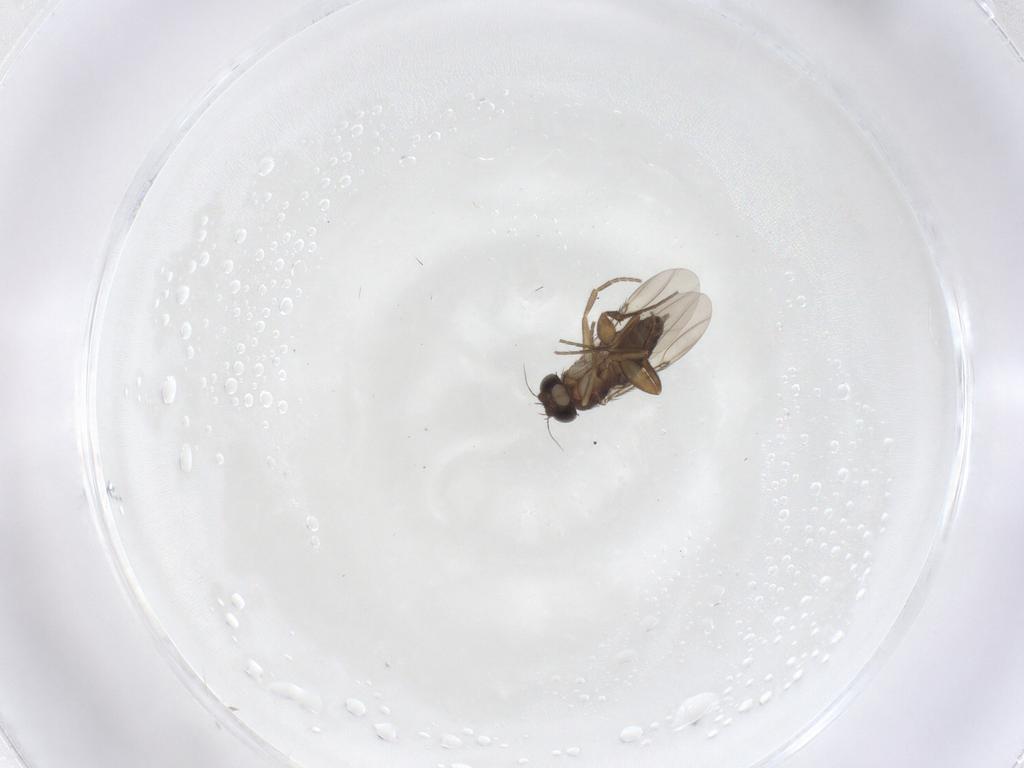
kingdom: Animalia
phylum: Arthropoda
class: Insecta
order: Diptera
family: Phoridae
